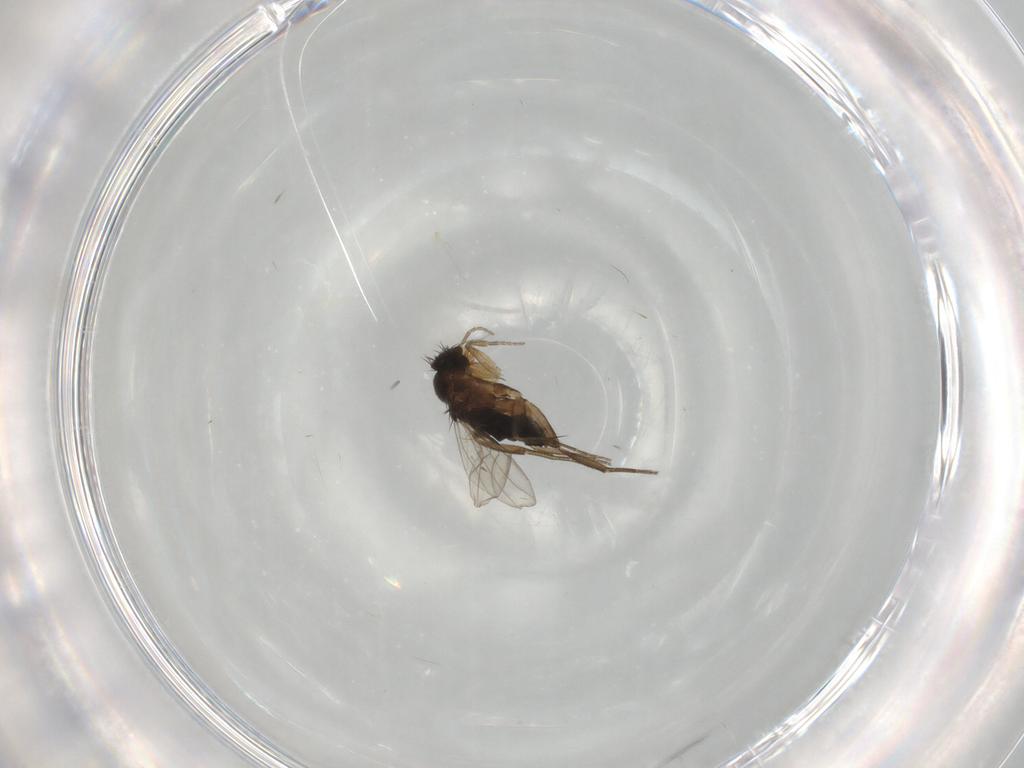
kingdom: Animalia
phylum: Arthropoda
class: Insecta
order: Diptera
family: Phoridae
